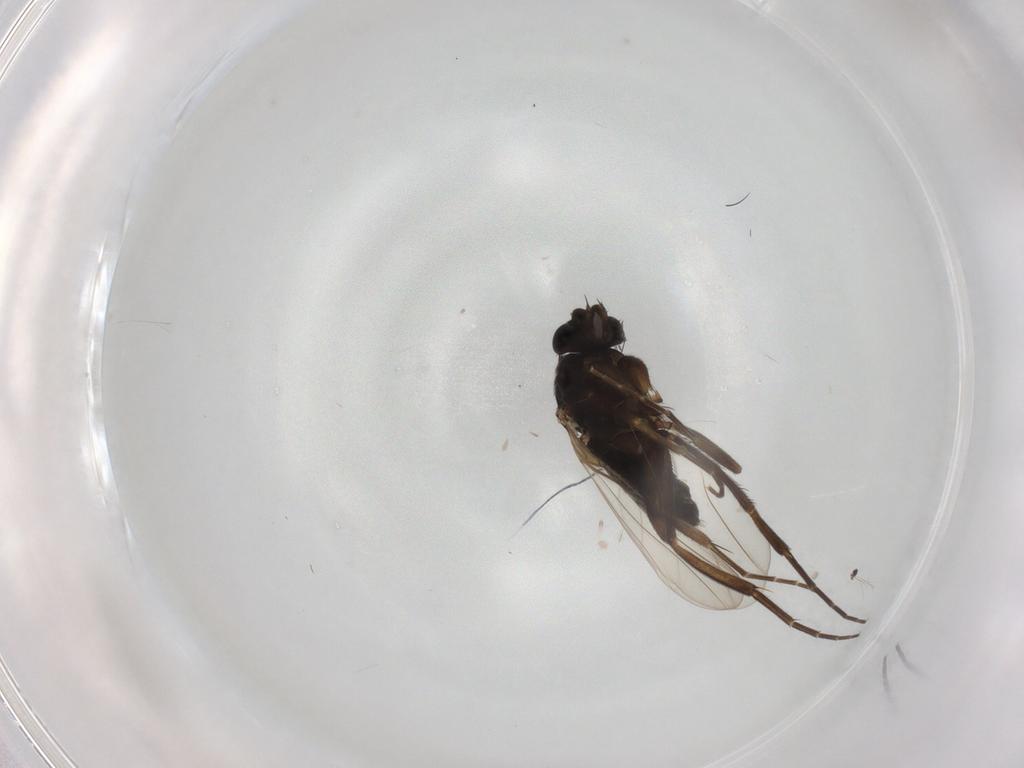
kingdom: Animalia
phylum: Arthropoda
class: Insecta
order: Diptera
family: Phoridae
